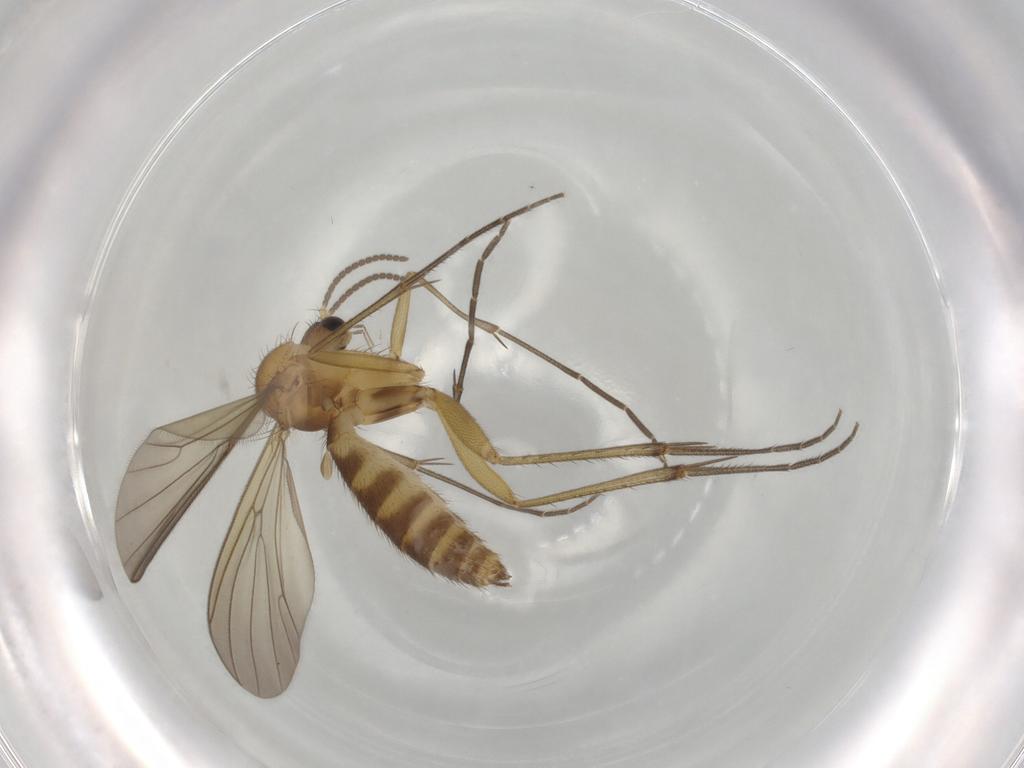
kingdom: Animalia
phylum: Arthropoda
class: Insecta
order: Diptera
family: Mycetophilidae
